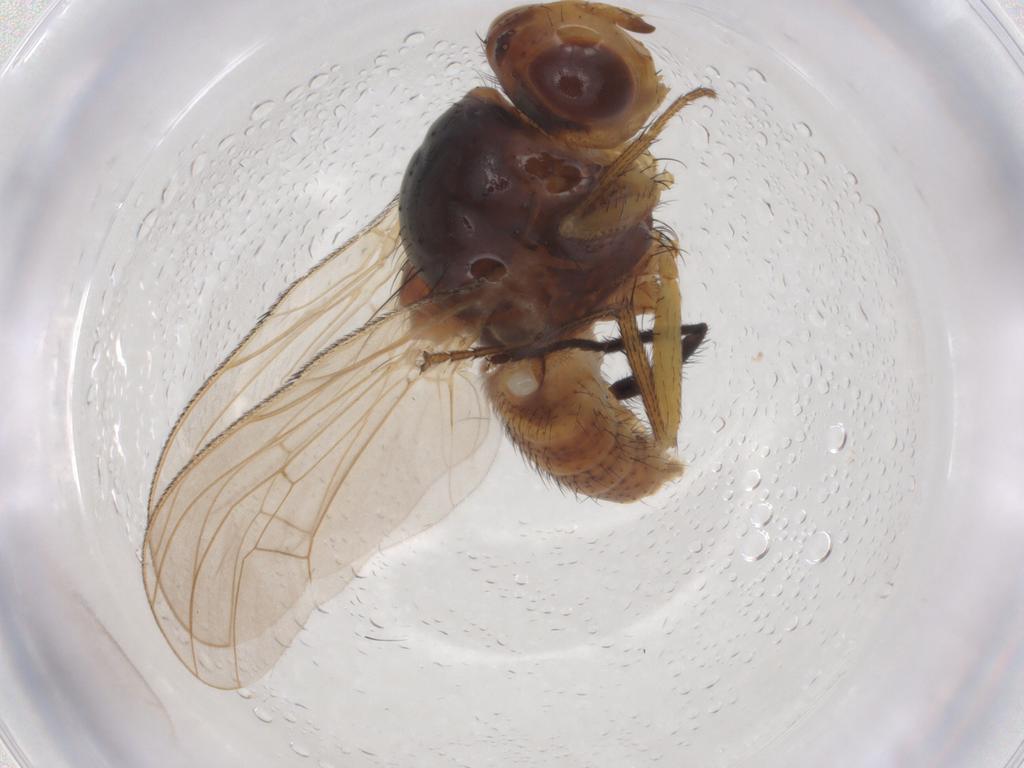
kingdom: Animalia
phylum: Arthropoda
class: Insecta
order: Diptera
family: Anthomyiidae
